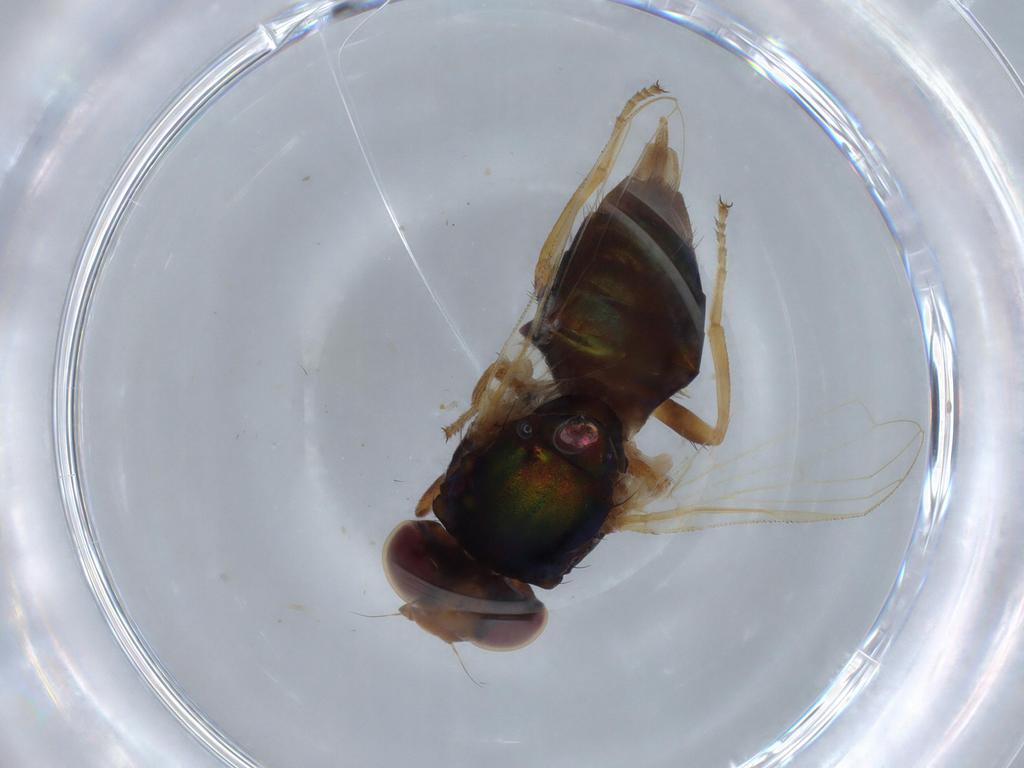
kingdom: Animalia
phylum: Arthropoda
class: Insecta
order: Diptera
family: Ulidiidae
